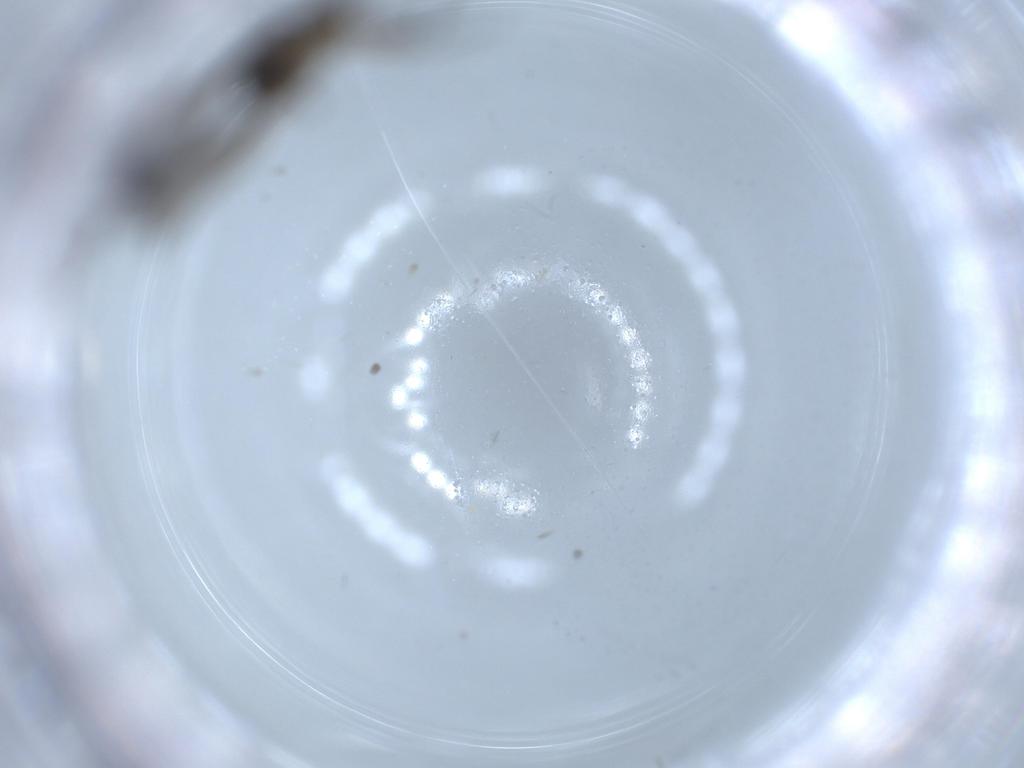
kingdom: Animalia
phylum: Arthropoda
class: Insecta
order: Diptera
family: Sciaridae
